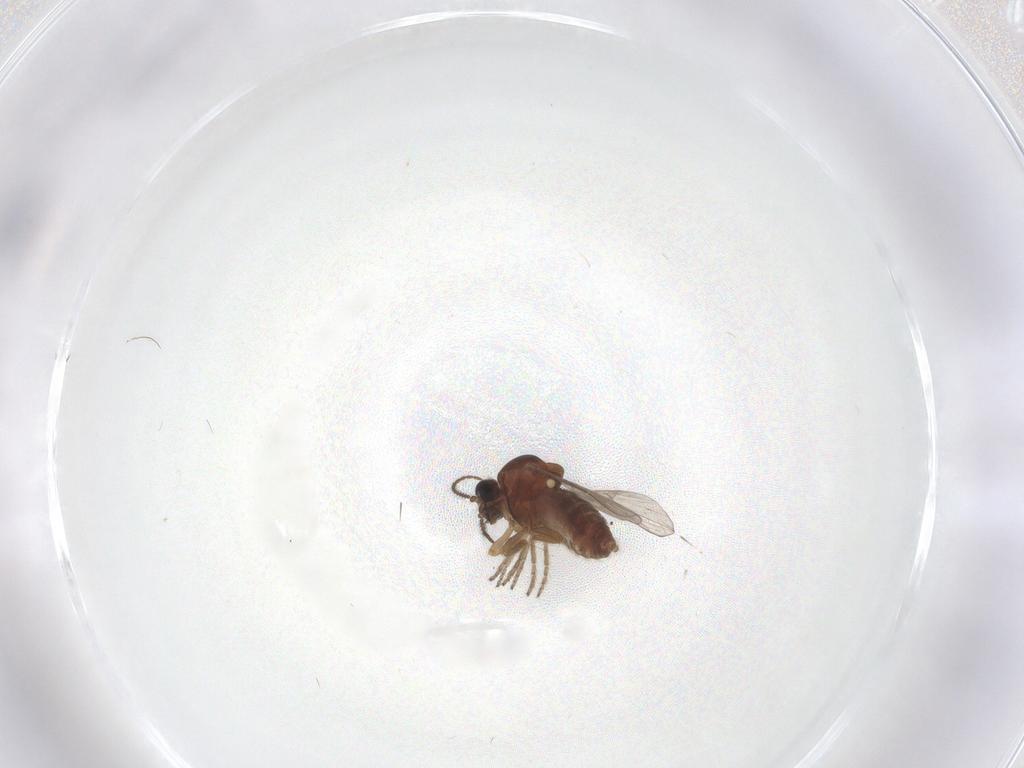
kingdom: Animalia
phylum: Arthropoda
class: Insecta
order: Diptera
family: Ceratopogonidae
